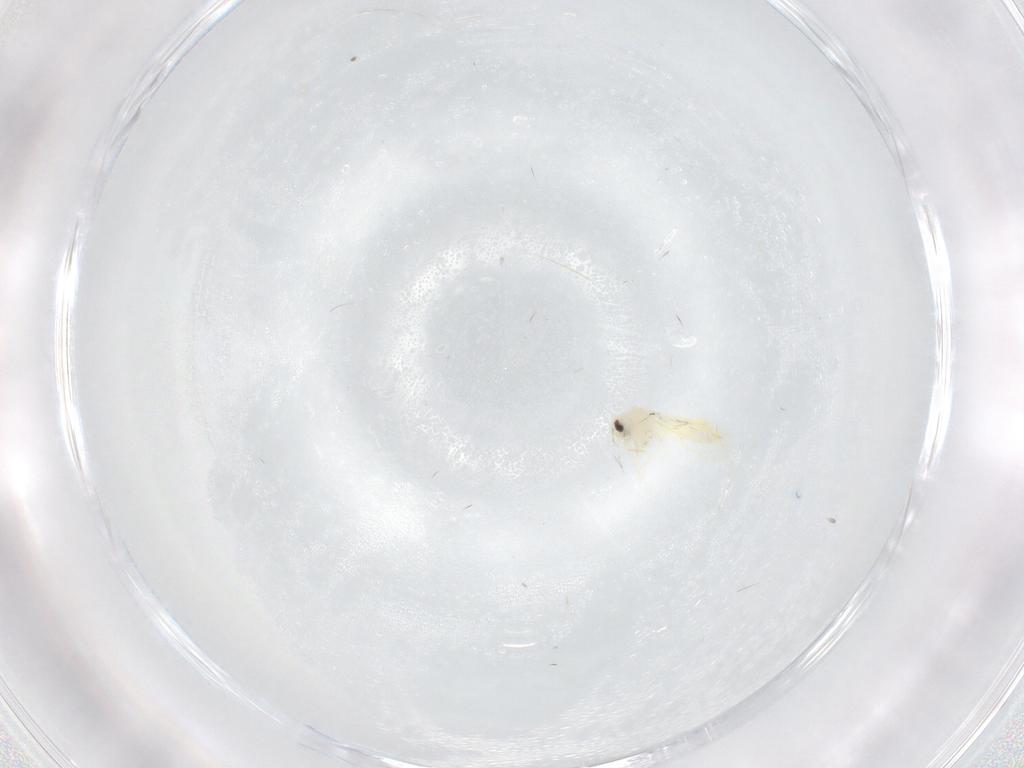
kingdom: Animalia
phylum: Arthropoda
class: Insecta
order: Hemiptera
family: Aleyrodidae
